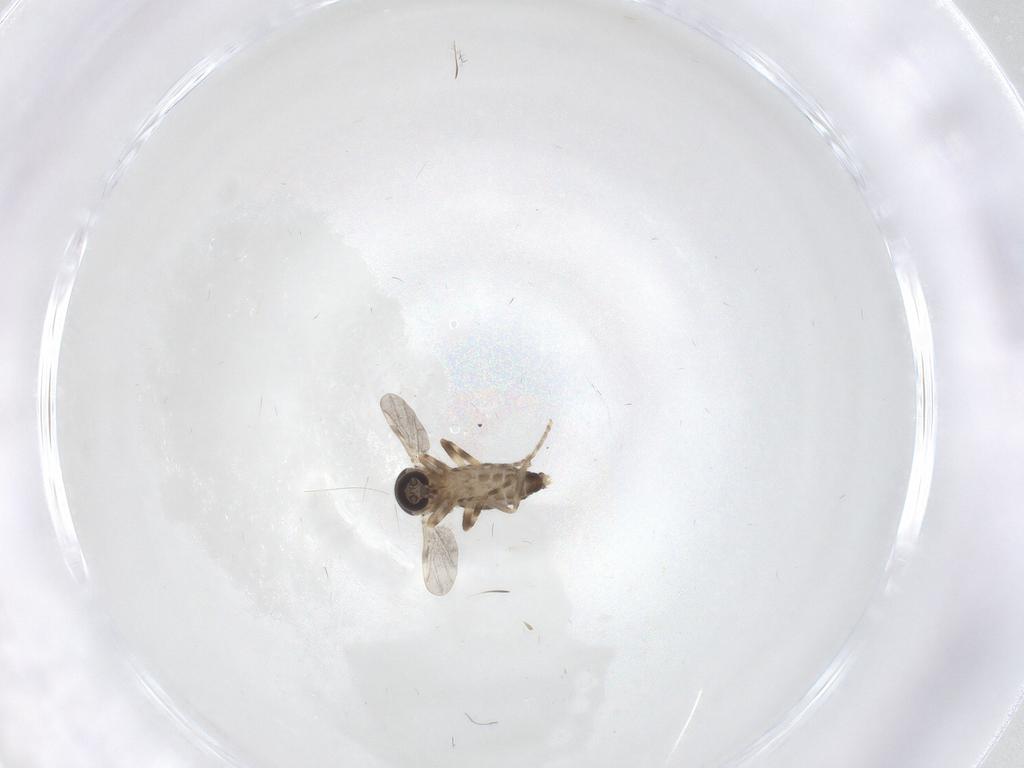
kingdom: Animalia
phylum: Arthropoda
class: Insecta
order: Diptera
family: Ceratopogonidae
